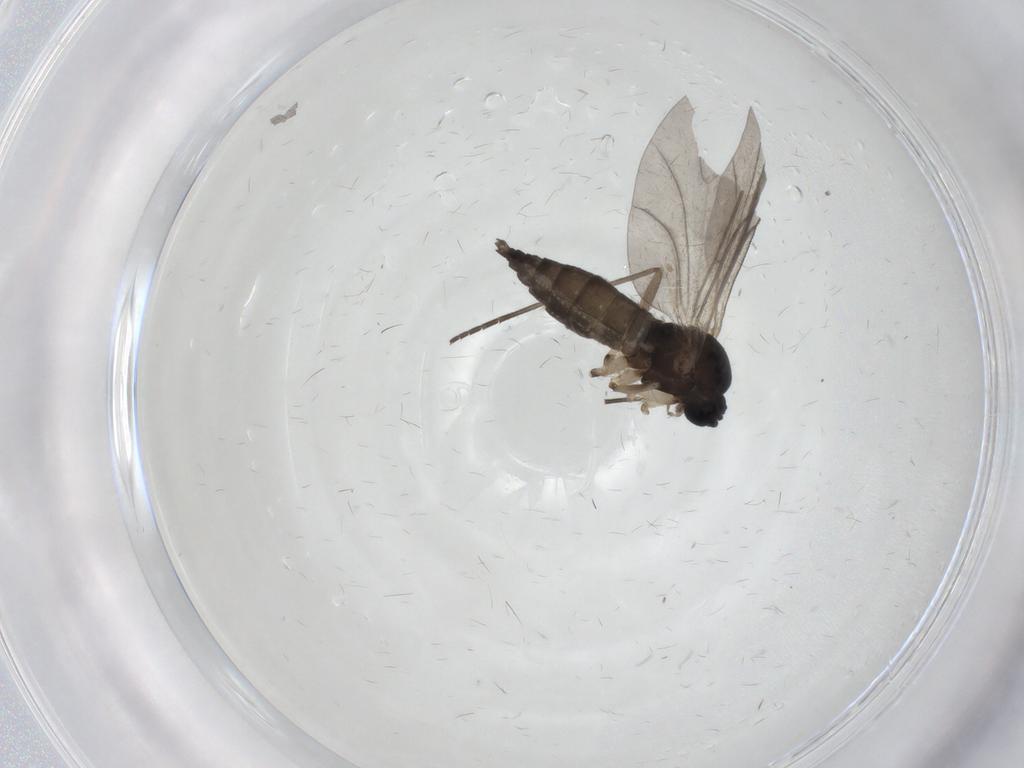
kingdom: Animalia
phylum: Arthropoda
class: Insecta
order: Diptera
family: Sciaridae
